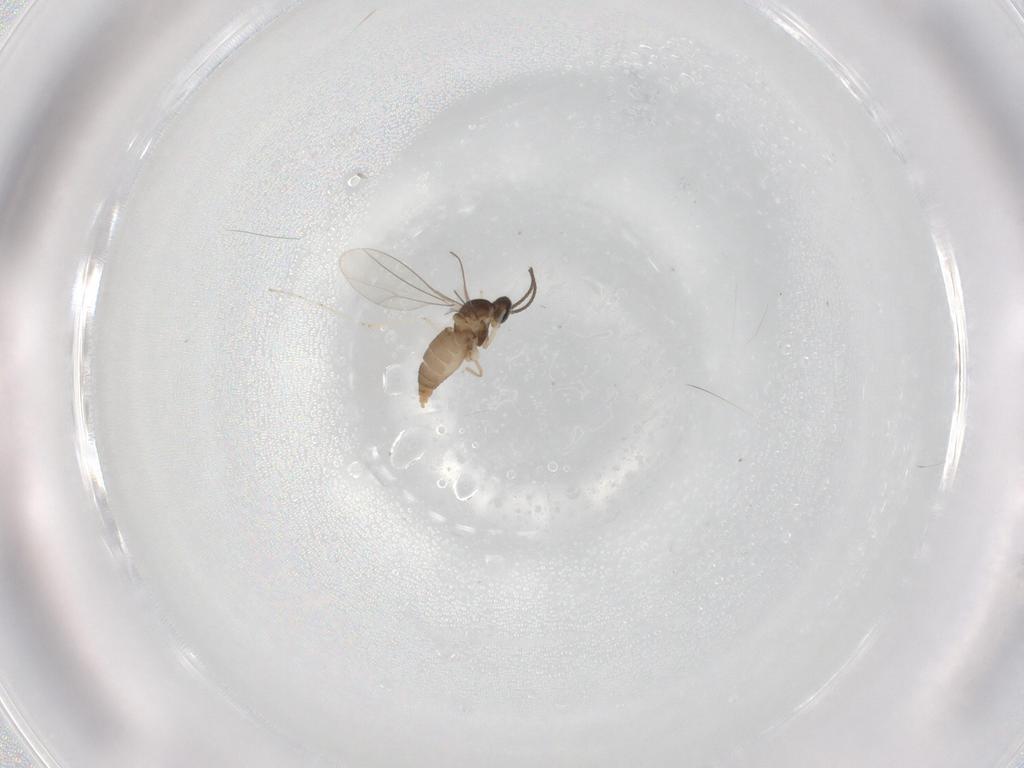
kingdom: Animalia
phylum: Arthropoda
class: Insecta
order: Diptera
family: Cecidomyiidae
